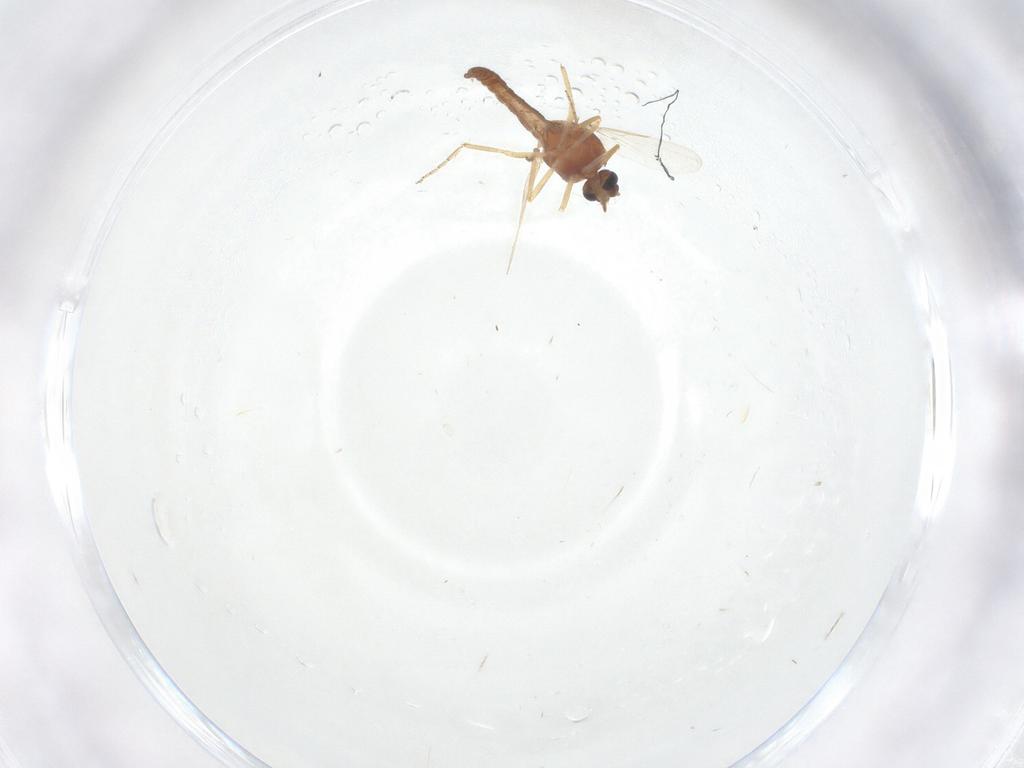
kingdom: Animalia
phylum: Arthropoda
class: Insecta
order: Diptera
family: Ceratopogonidae
